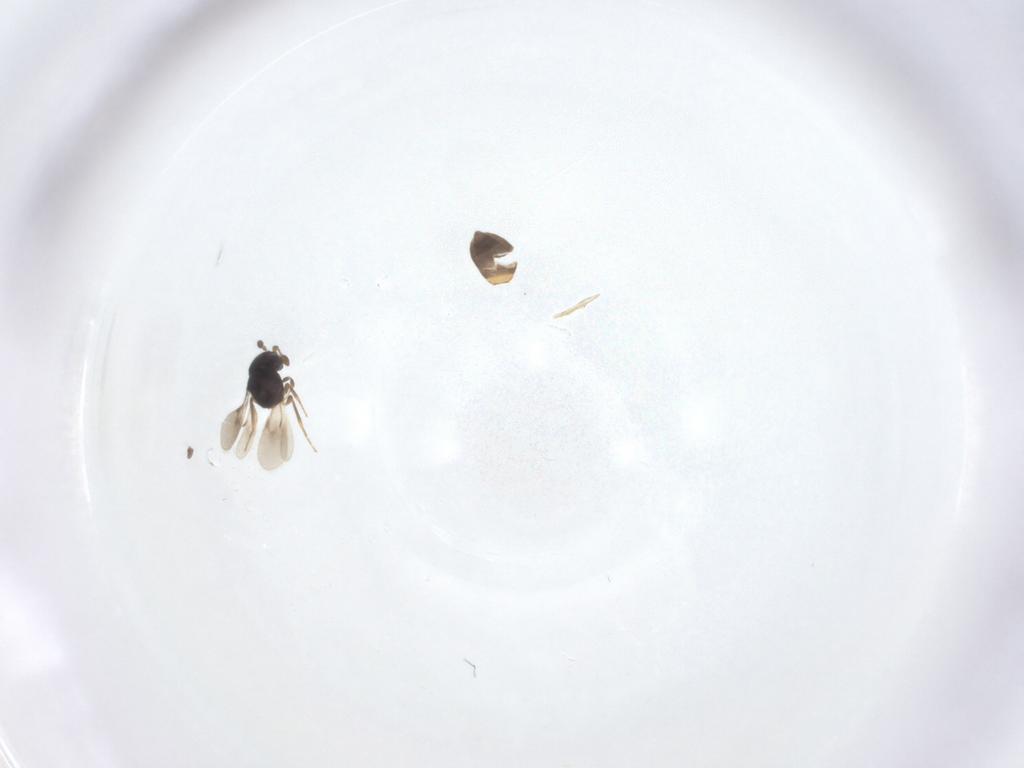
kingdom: Animalia
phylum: Arthropoda
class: Insecta
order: Hymenoptera
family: Scelionidae
